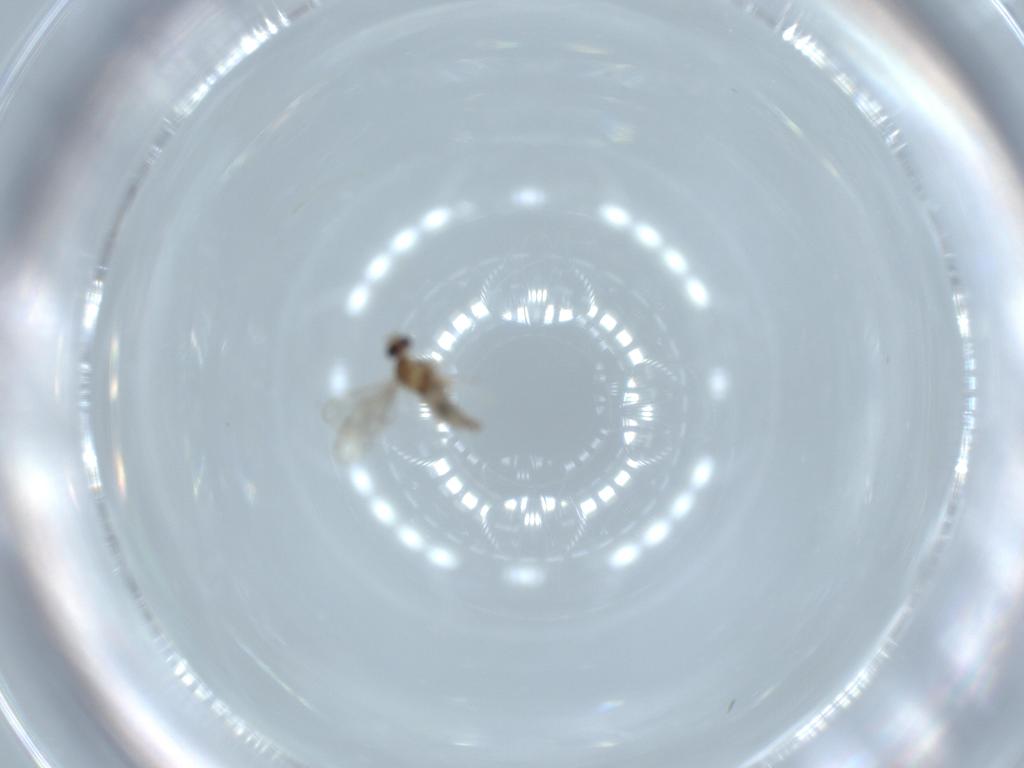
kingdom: Animalia
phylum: Arthropoda
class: Insecta
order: Diptera
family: Cecidomyiidae
